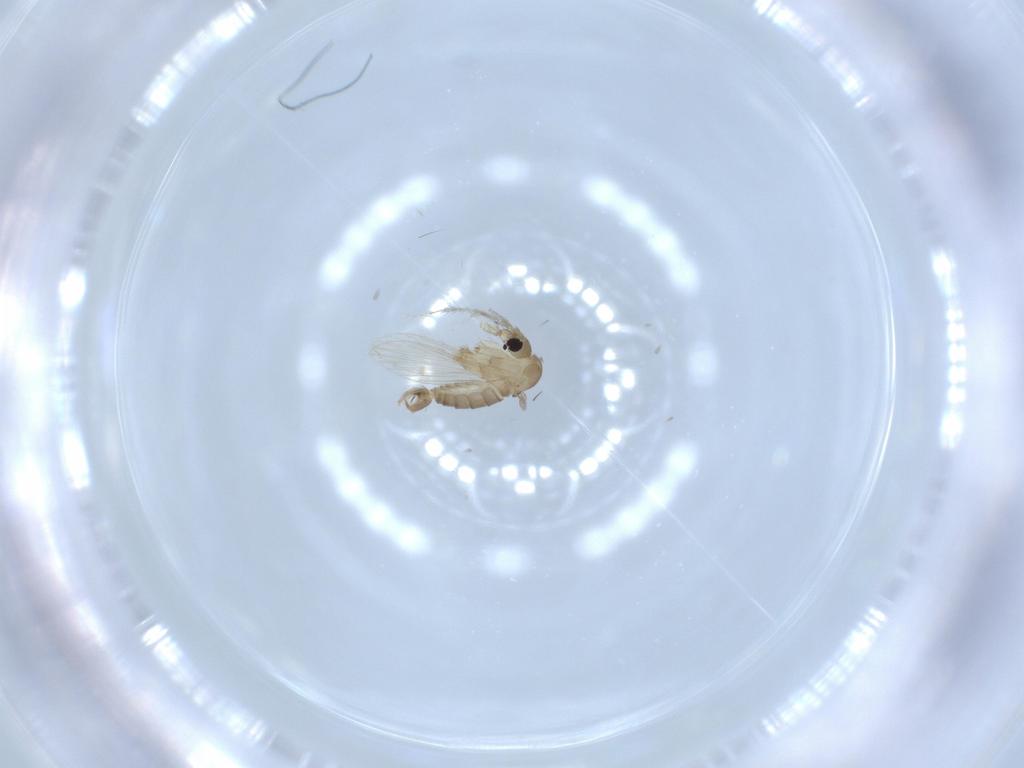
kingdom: Animalia
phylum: Arthropoda
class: Insecta
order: Diptera
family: Psychodidae
